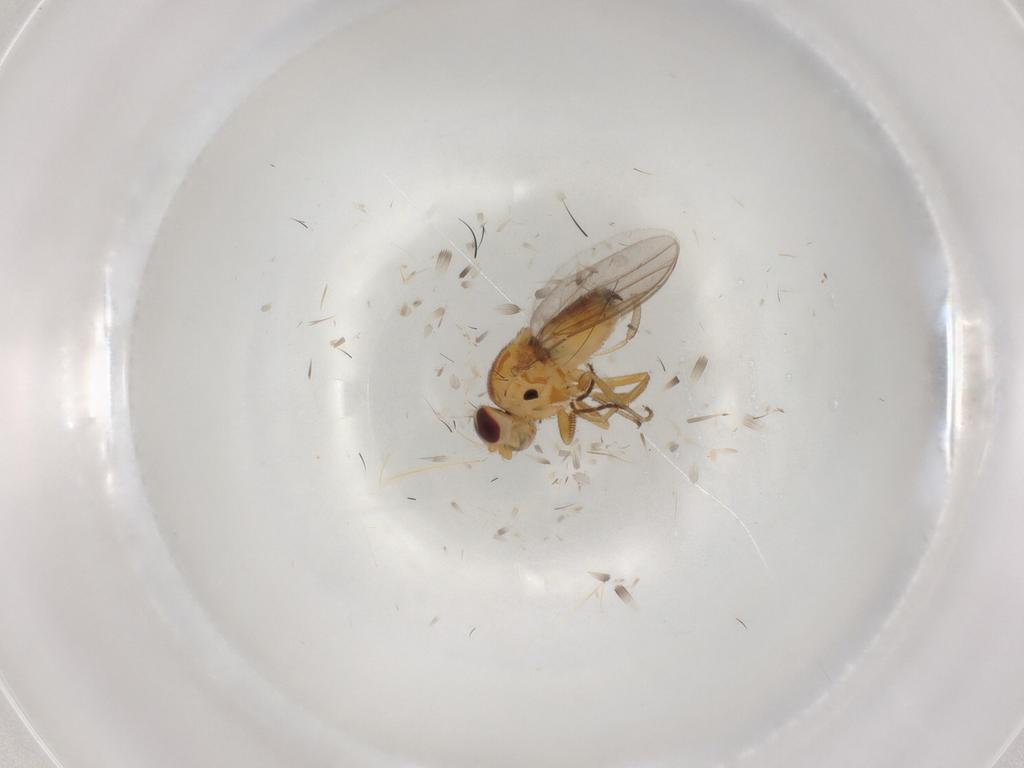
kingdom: Animalia
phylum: Arthropoda
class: Insecta
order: Diptera
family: Chloropidae
